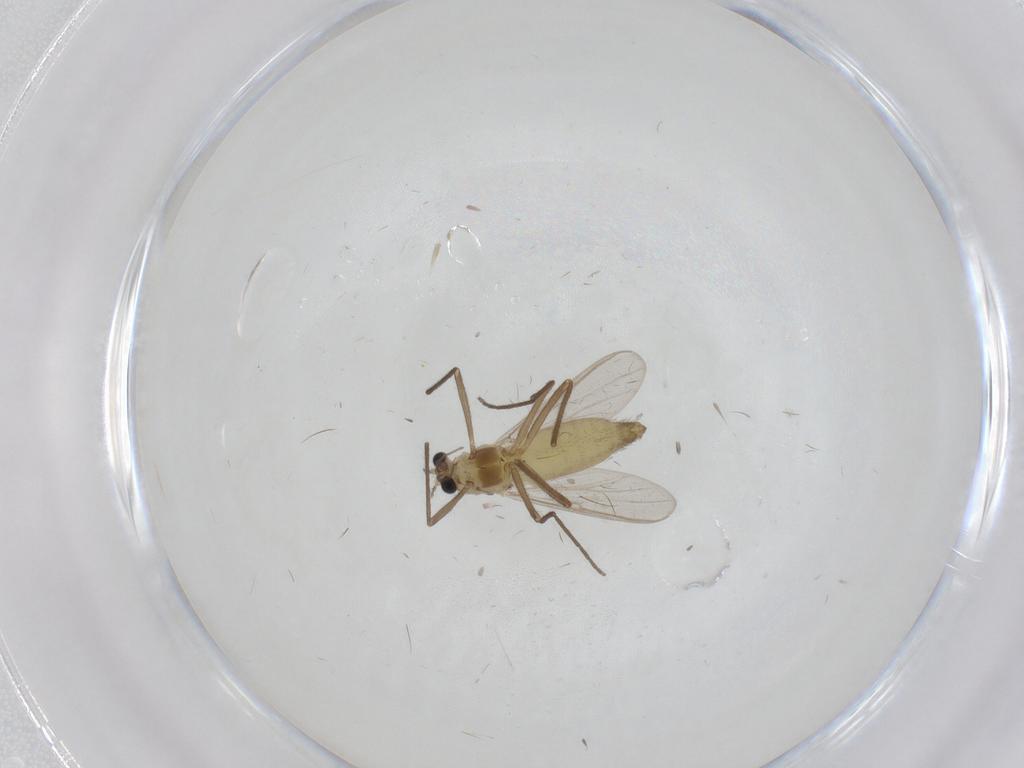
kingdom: Animalia
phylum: Arthropoda
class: Insecta
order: Diptera
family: Chironomidae
